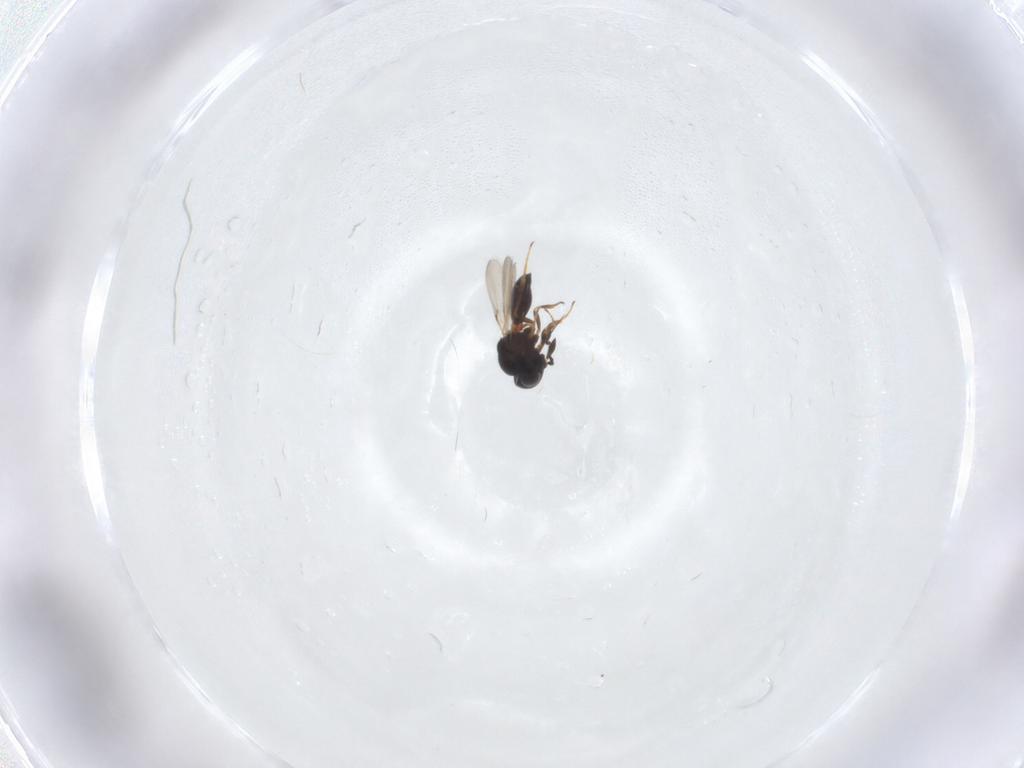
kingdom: Animalia
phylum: Arthropoda
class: Arachnida
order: Araneae
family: Pholcidae
